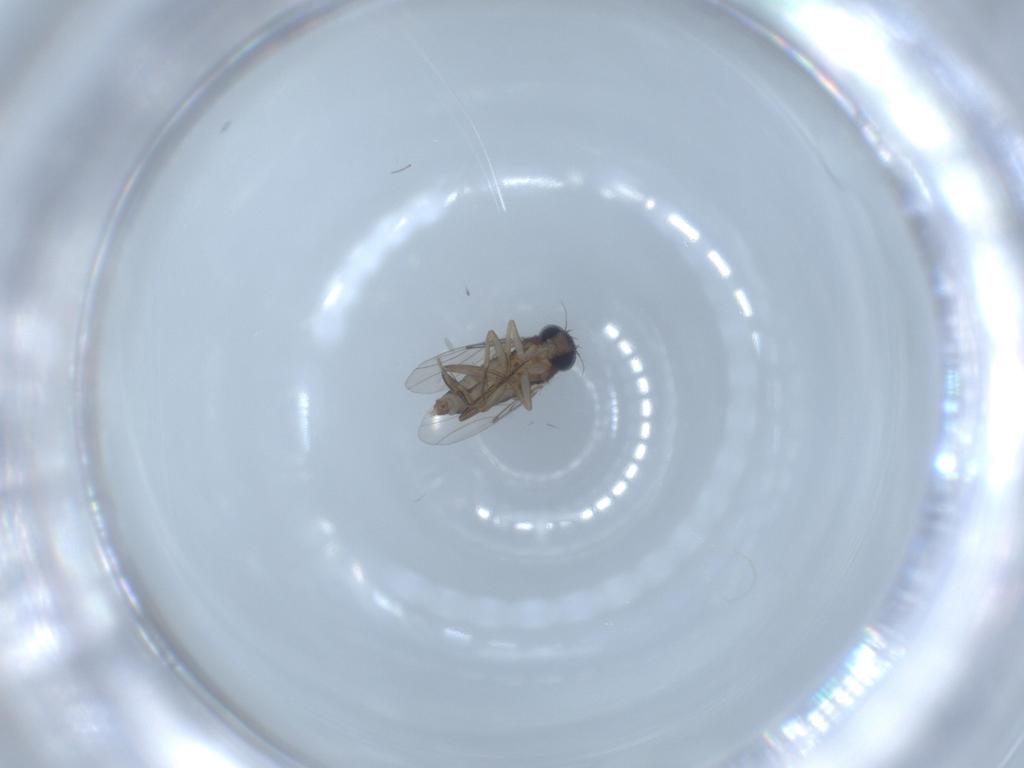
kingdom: Animalia
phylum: Arthropoda
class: Insecta
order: Diptera
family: Phoridae
